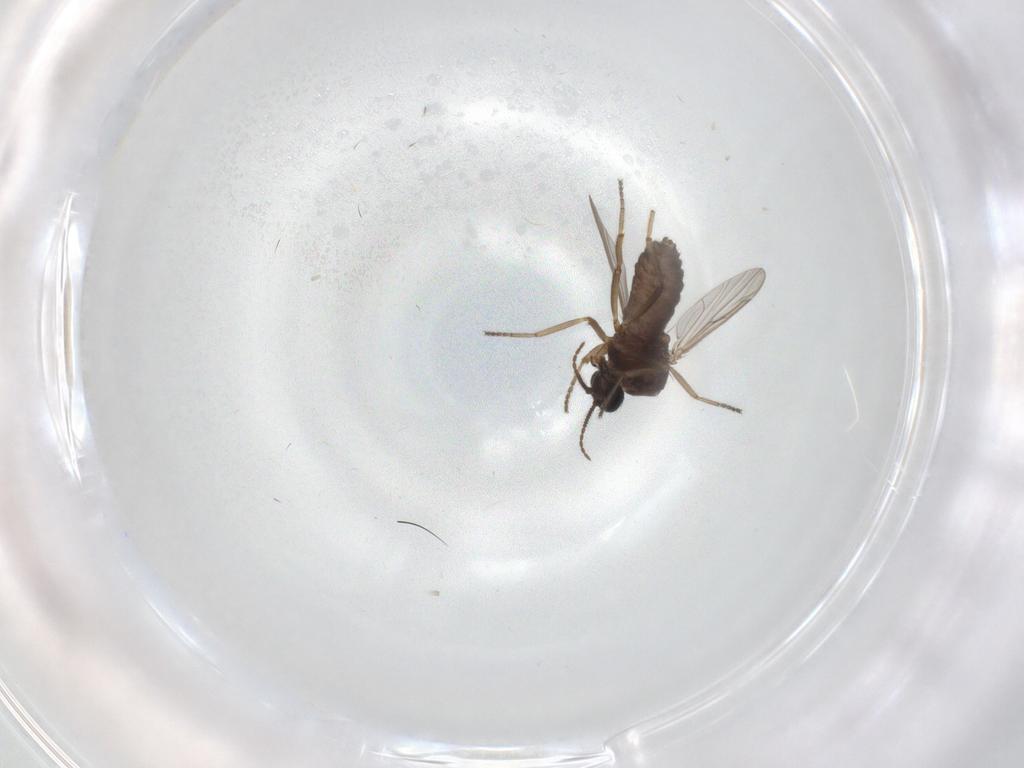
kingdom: Animalia
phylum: Arthropoda
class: Insecta
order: Diptera
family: Ceratopogonidae
